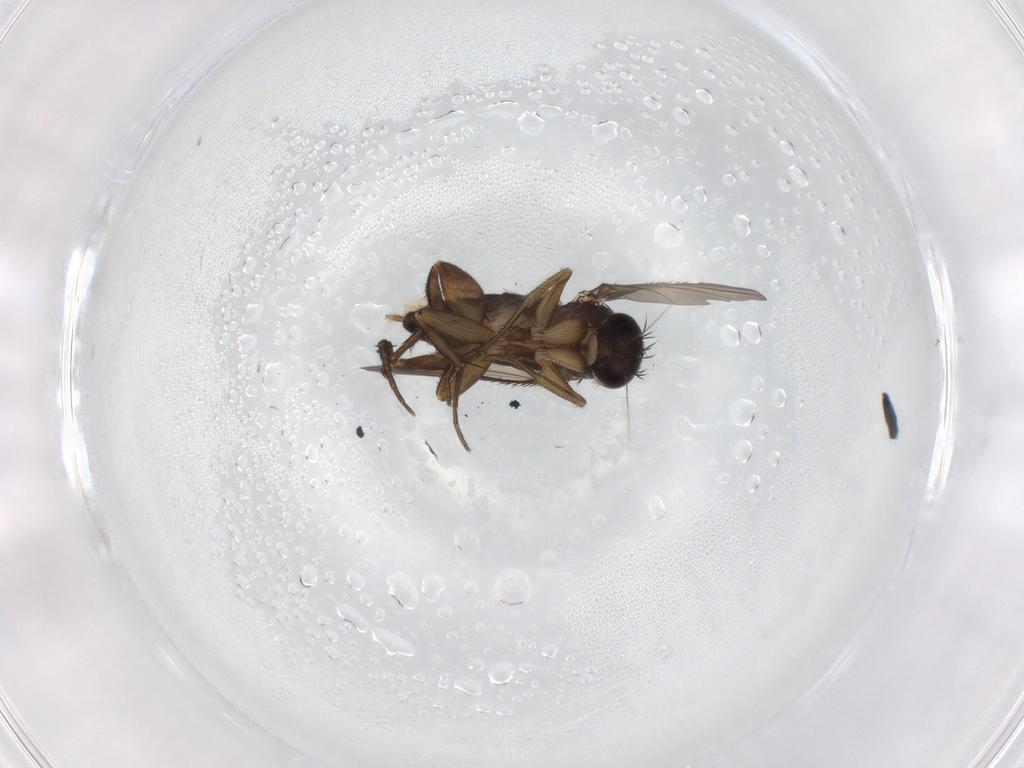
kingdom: Animalia
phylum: Arthropoda
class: Insecta
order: Diptera
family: Phoridae
